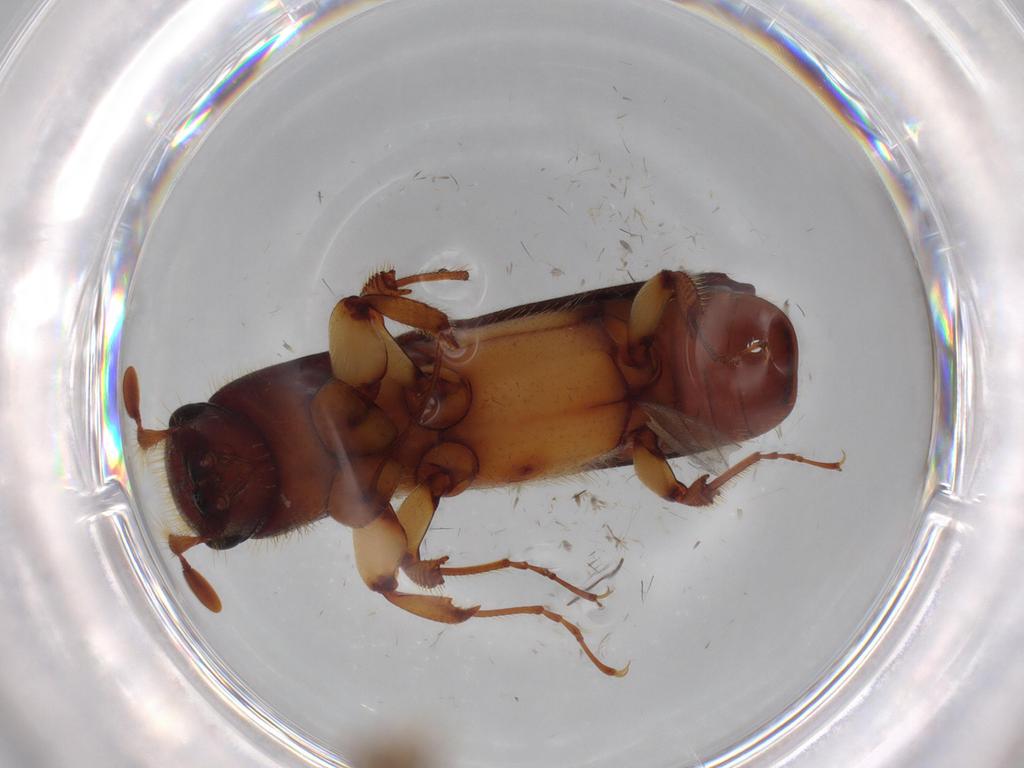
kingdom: Animalia
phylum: Arthropoda
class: Insecta
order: Coleoptera
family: Curculionidae
